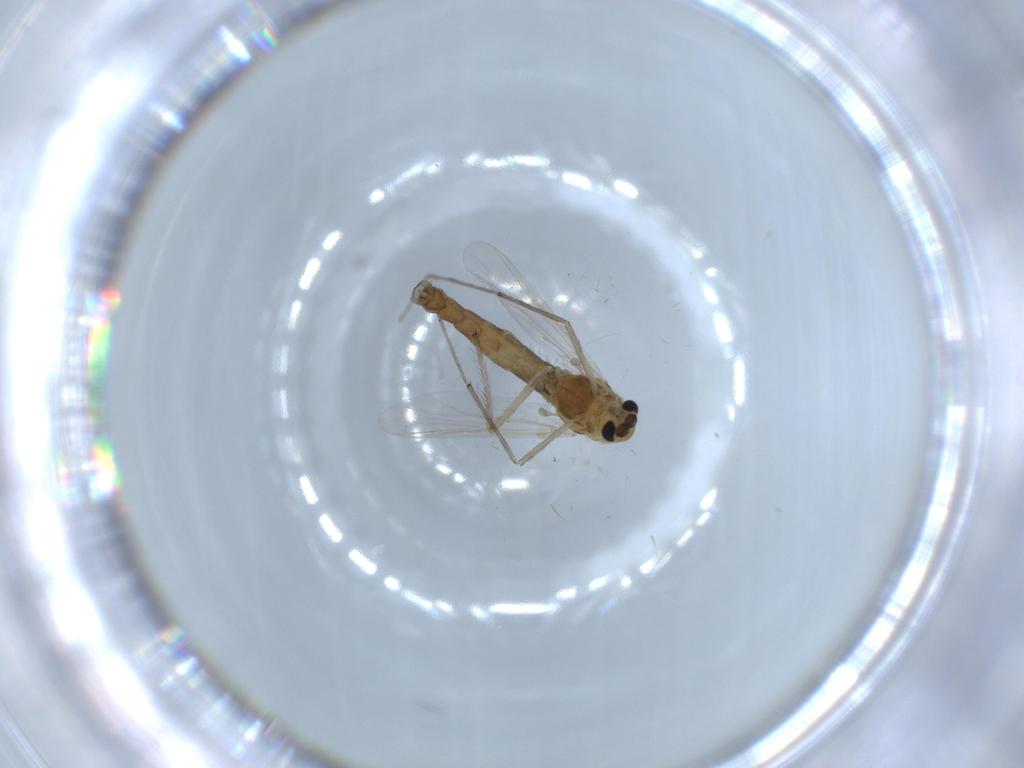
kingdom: Animalia
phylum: Arthropoda
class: Insecta
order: Diptera
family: Chironomidae
